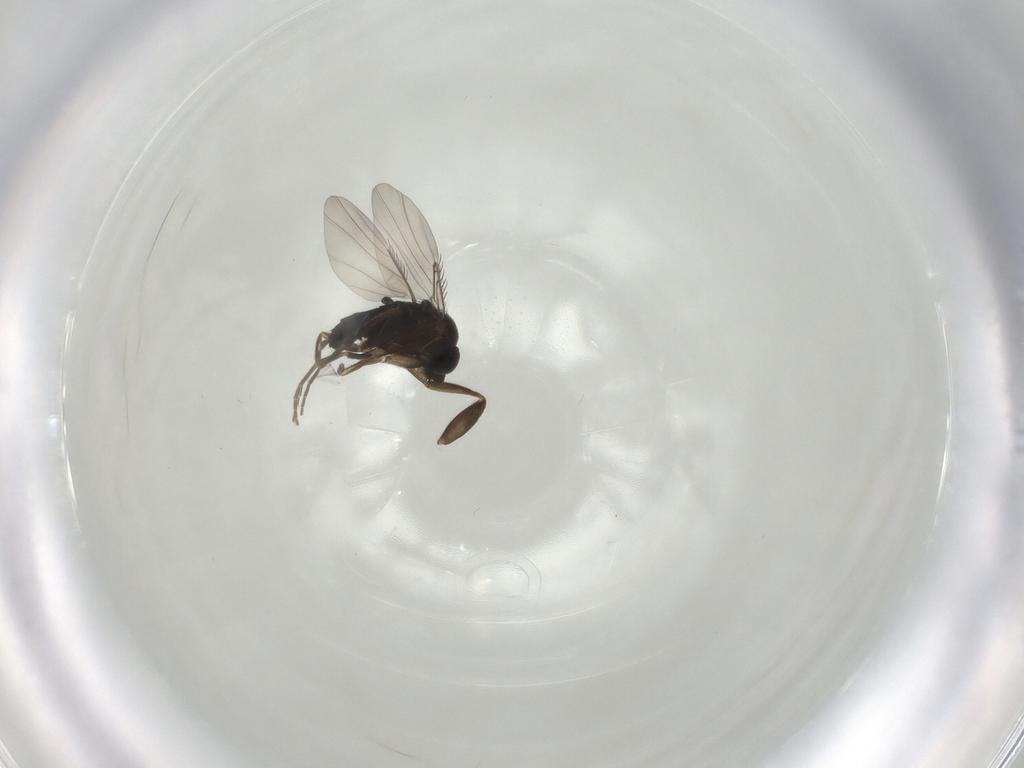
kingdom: Animalia
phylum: Arthropoda
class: Insecta
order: Diptera
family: Phoridae
